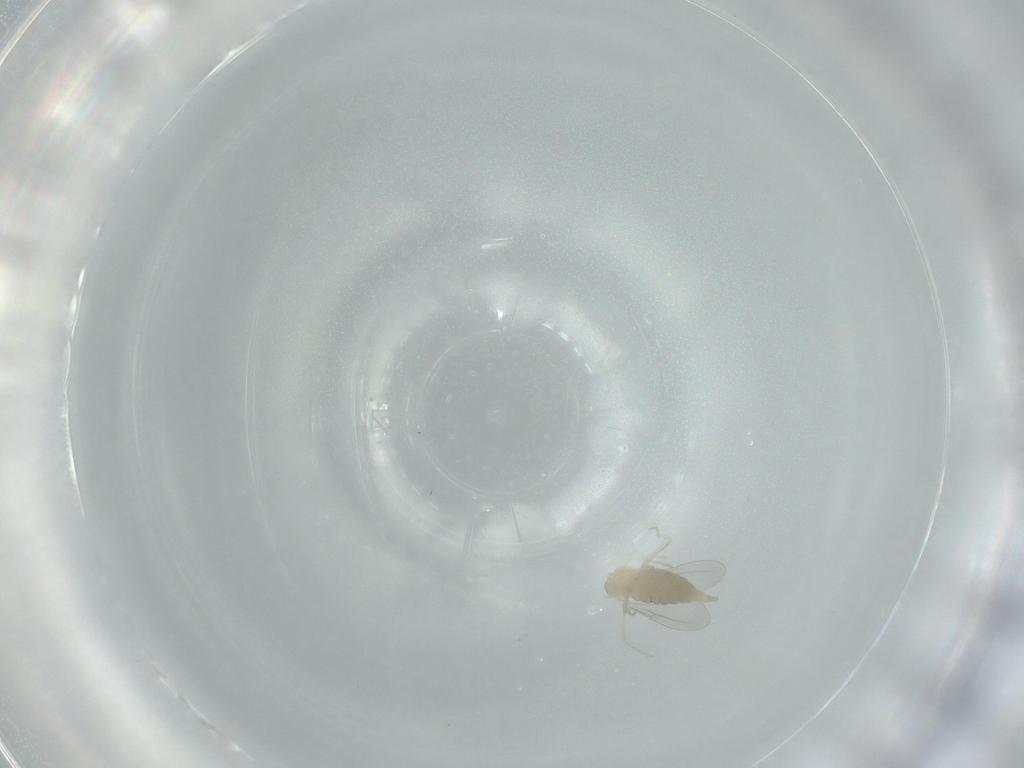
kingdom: Animalia
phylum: Arthropoda
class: Insecta
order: Diptera
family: Cecidomyiidae
